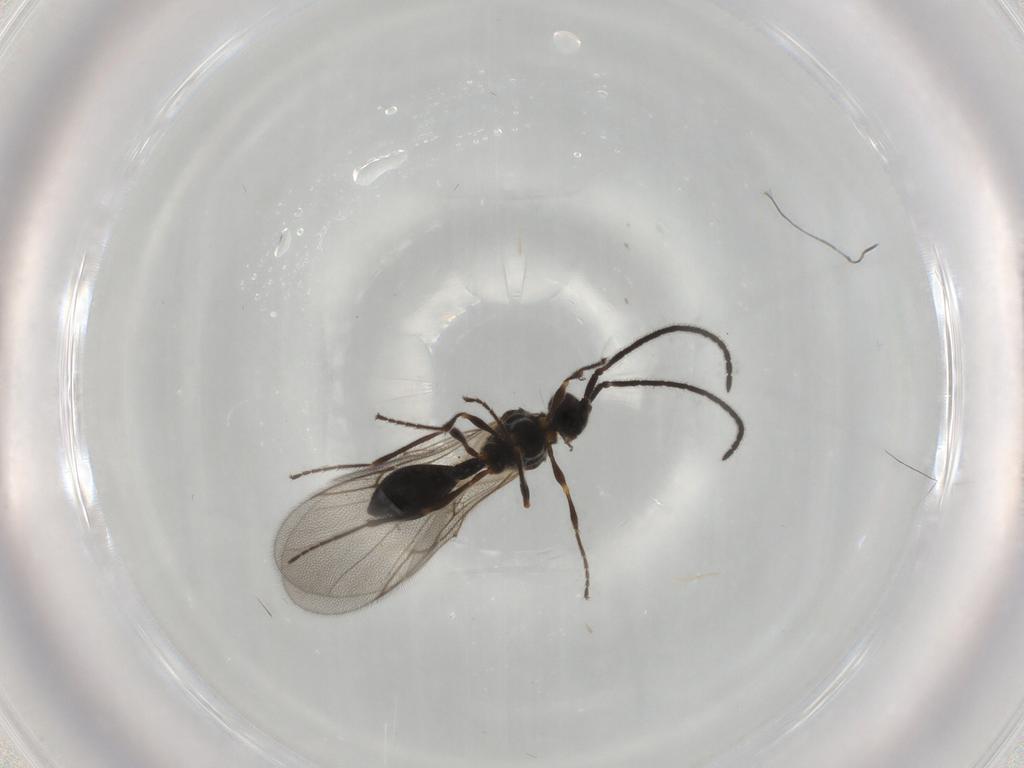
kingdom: Animalia
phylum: Arthropoda
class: Insecta
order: Hymenoptera
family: Diapriidae
